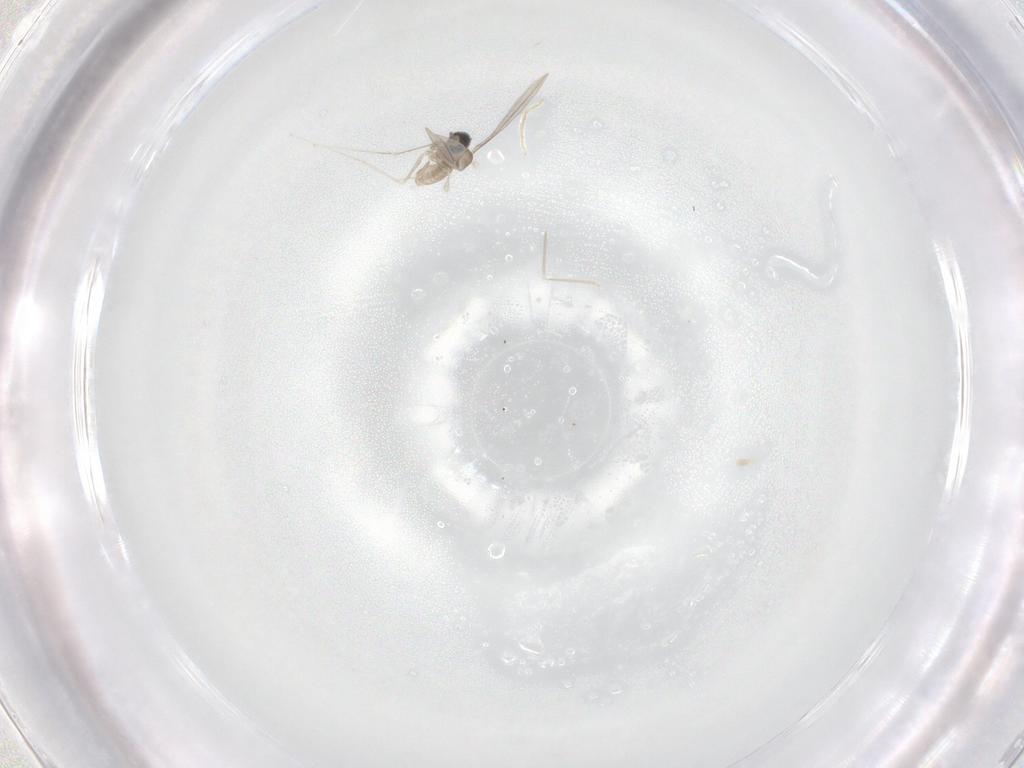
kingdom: Animalia
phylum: Arthropoda
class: Insecta
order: Diptera
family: Cecidomyiidae
